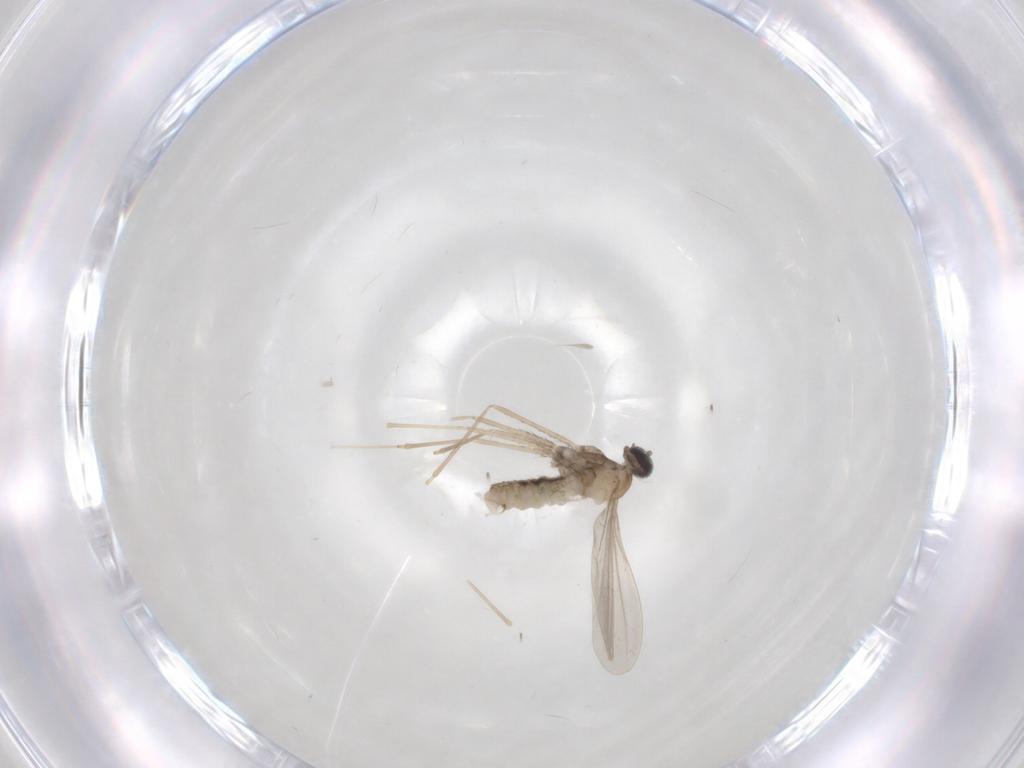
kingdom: Animalia
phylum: Arthropoda
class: Insecta
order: Diptera
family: Cecidomyiidae
